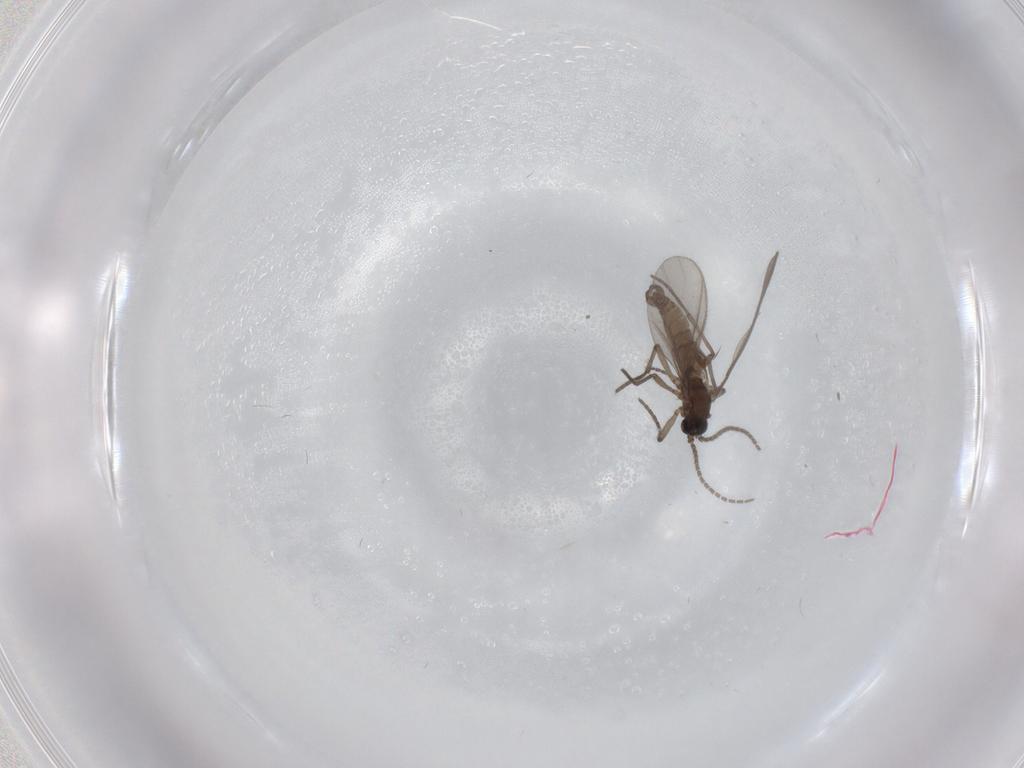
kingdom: Animalia
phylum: Arthropoda
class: Insecta
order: Diptera
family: Sciaridae
